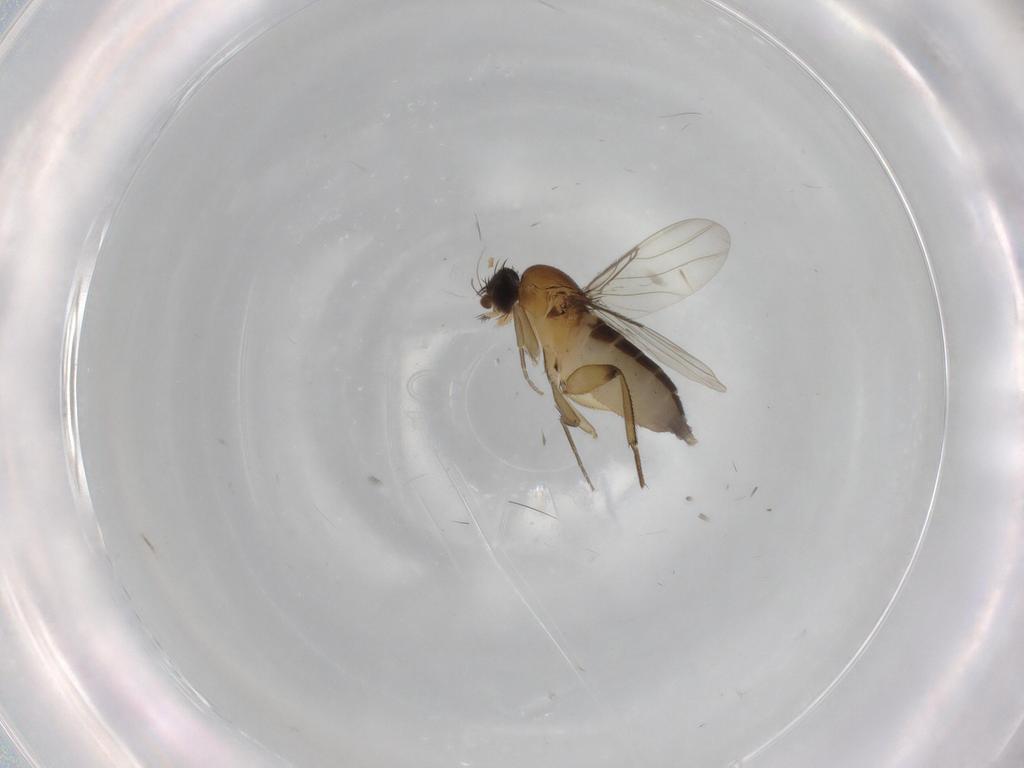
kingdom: Animalia
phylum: Arthropoda
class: Insecta
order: Diptera
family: Phoridae
